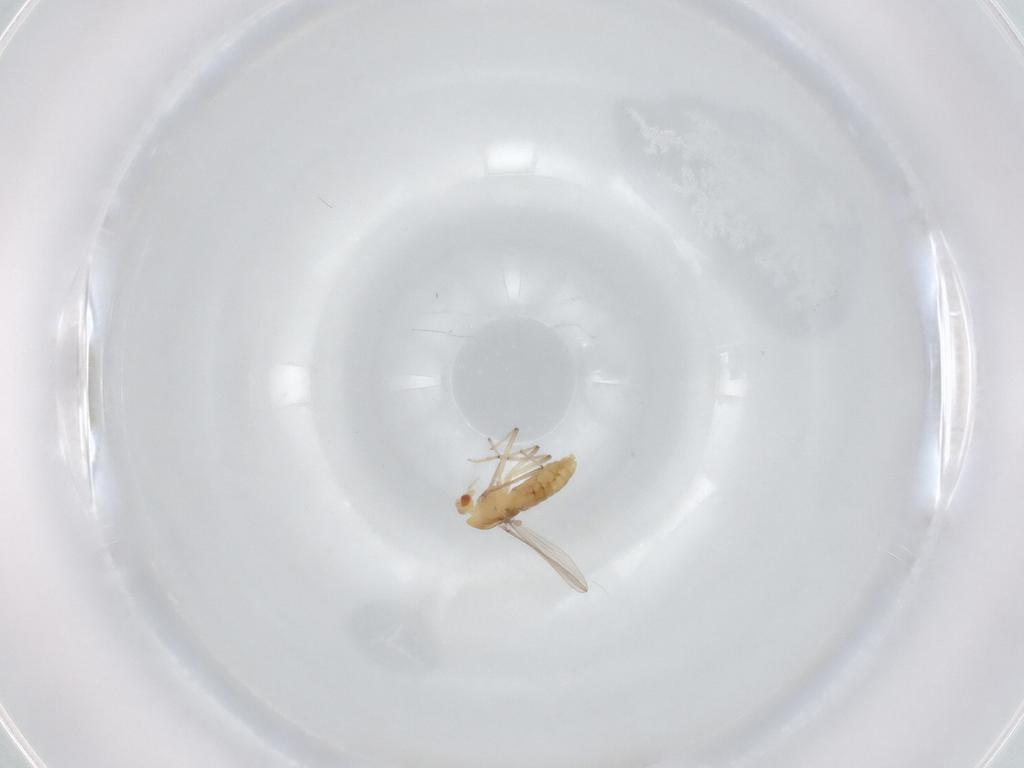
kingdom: Animalia
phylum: Arthropoda
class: Insecta
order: Diptera
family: Chironomidae
